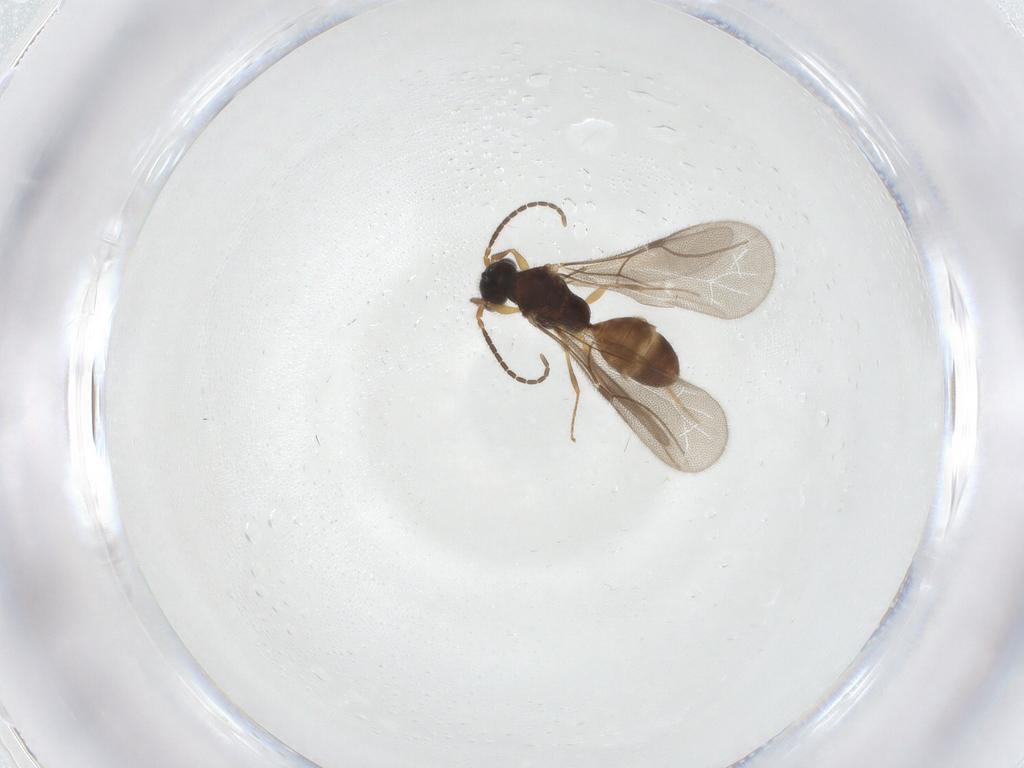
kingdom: Animalia
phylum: Arthropoda
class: Insecta
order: Hymenoptera
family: Bethylidae
